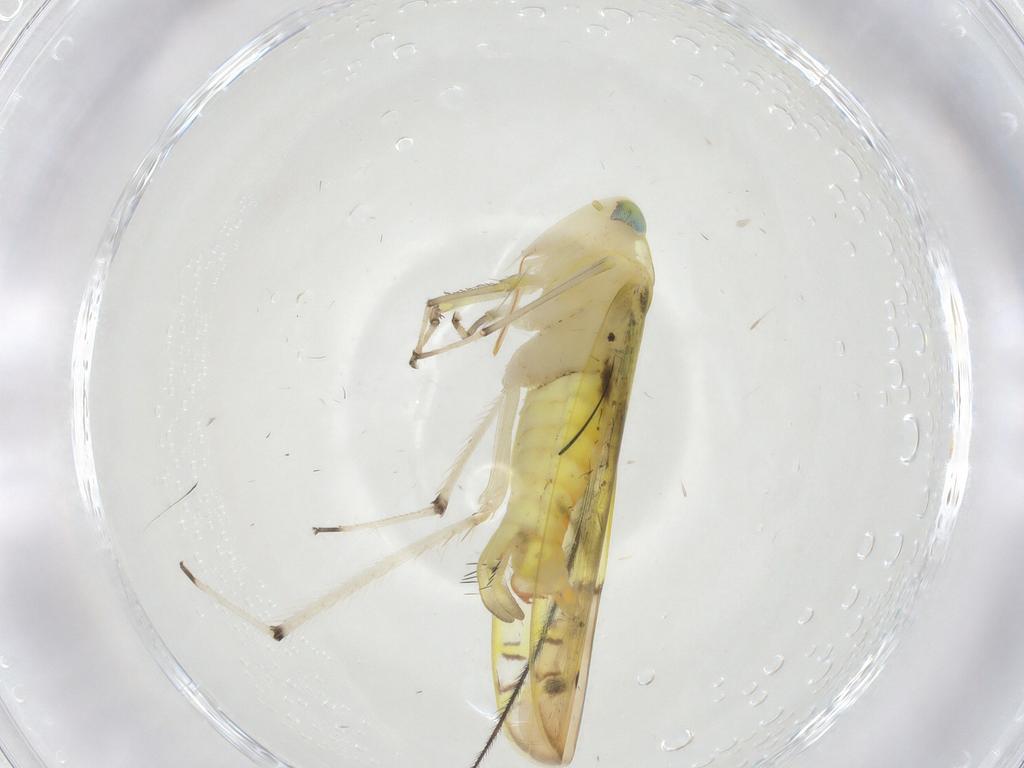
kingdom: Animalia
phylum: Arthropoda
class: Insecta
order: Hemiptera
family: Cicadellidae
